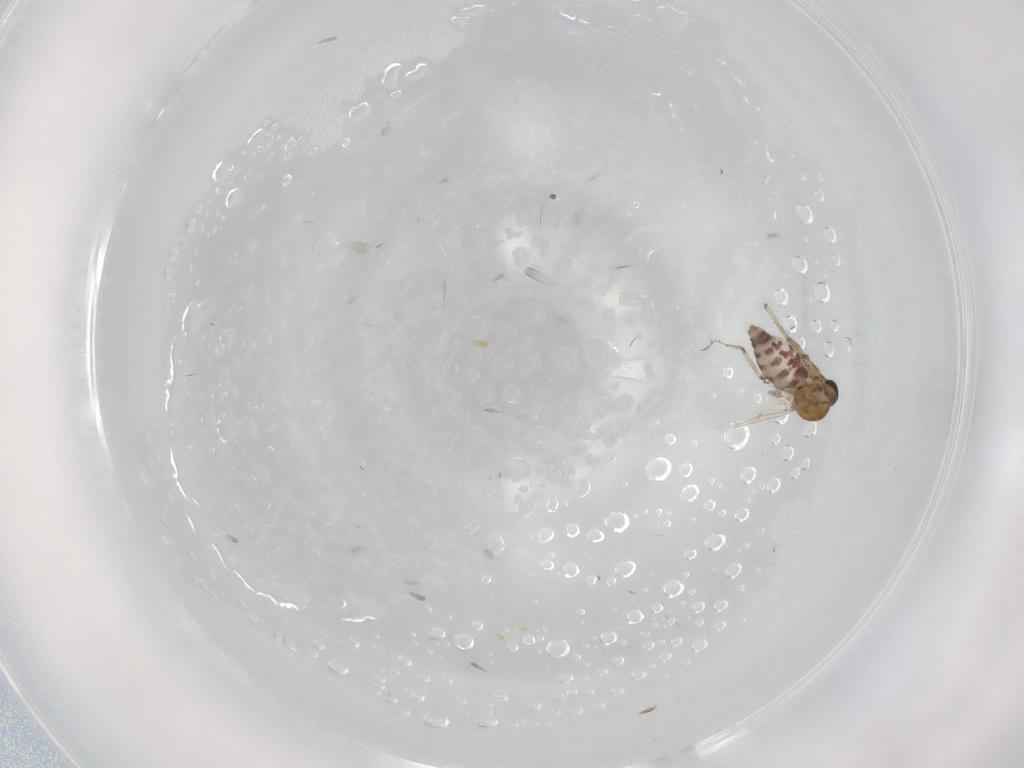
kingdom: Animalia
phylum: Arthropoda
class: Insecta
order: Diptera
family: Ceratopogonidae
